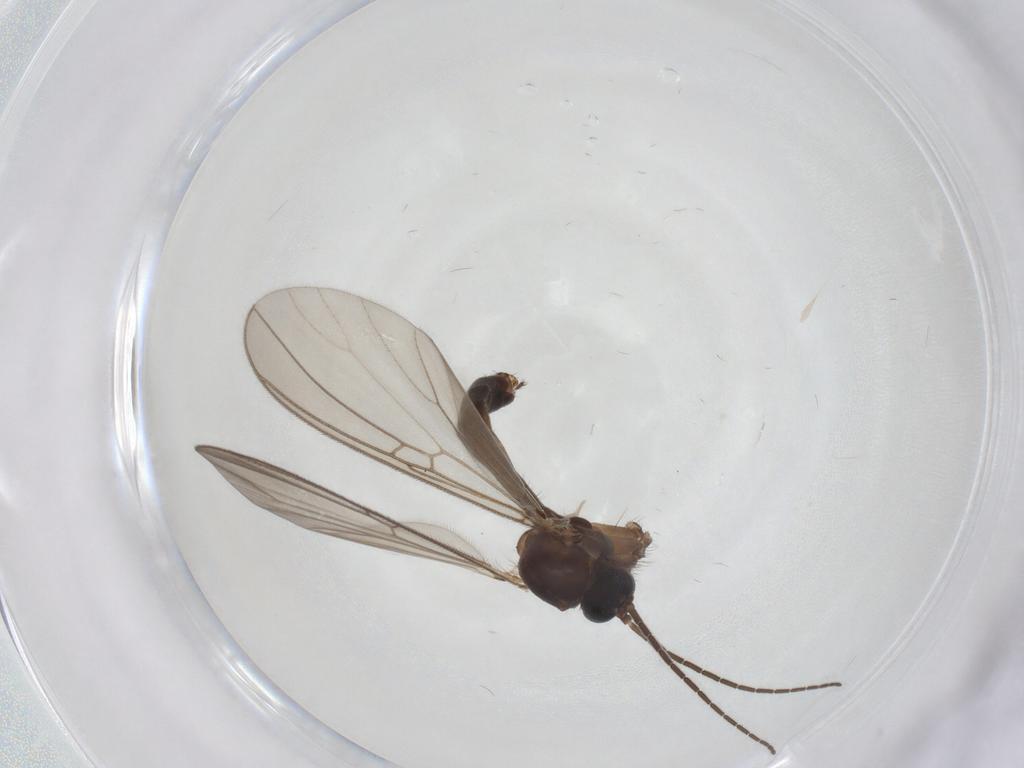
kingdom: Animalia
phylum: Arthropoda
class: Insecta
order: Diptera
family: Mycetophilidae
